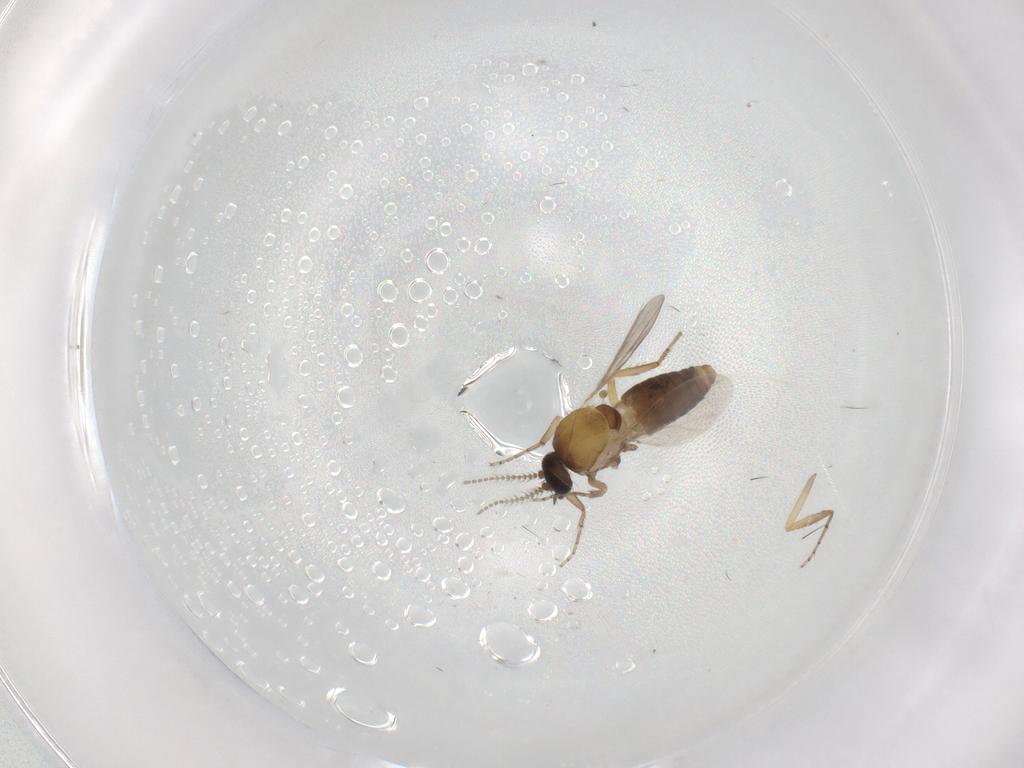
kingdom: Animalia
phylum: Arthropoda
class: Insecta
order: Diptera
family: Ceratopogonidae
